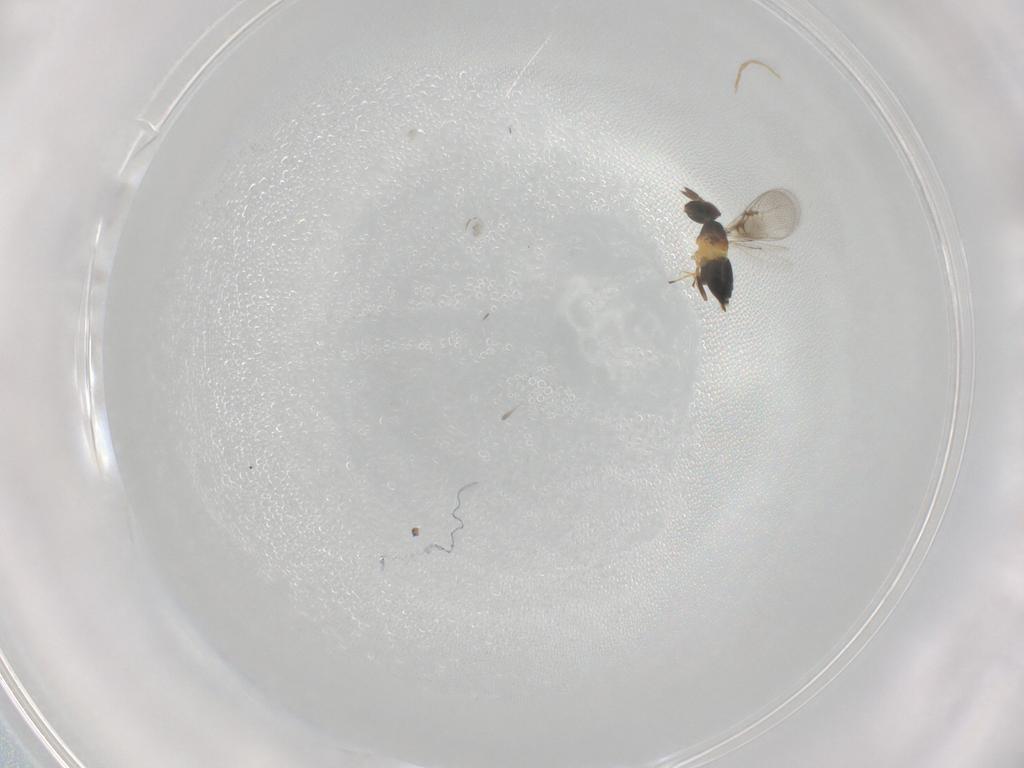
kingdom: Animalia
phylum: Arthropoda
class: Insecta
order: Hymenoptera
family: Trichogrammatidae
